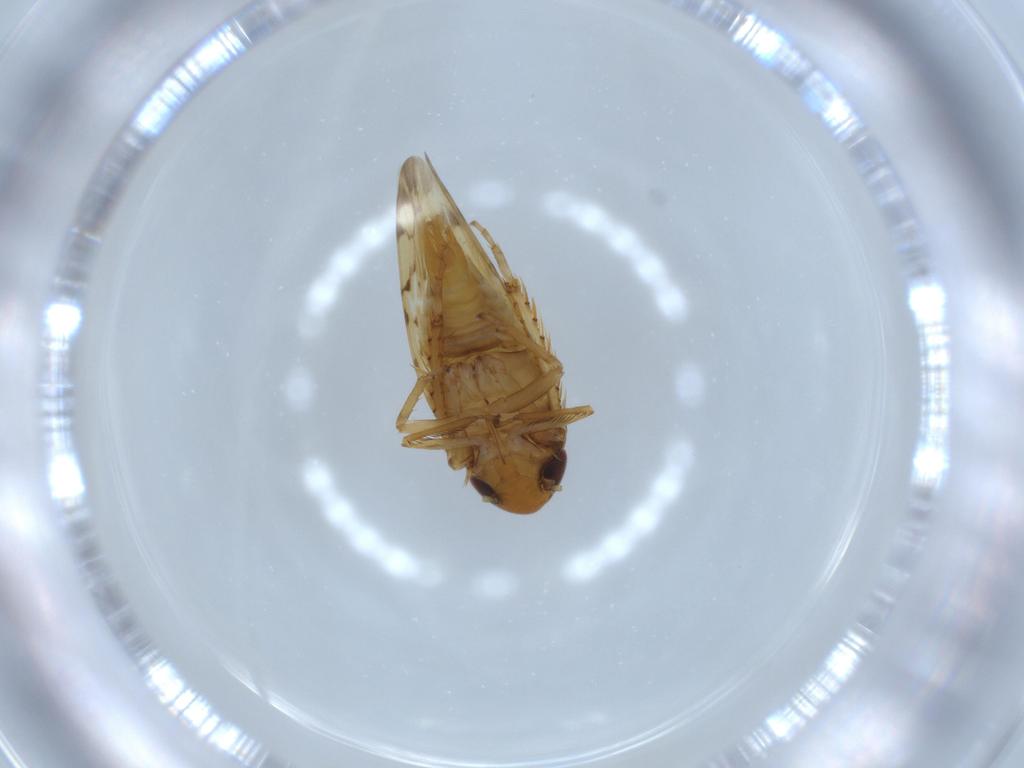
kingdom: Animalia
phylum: Arthropoda
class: Insecta
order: Hemiptera
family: Cicadellidae
